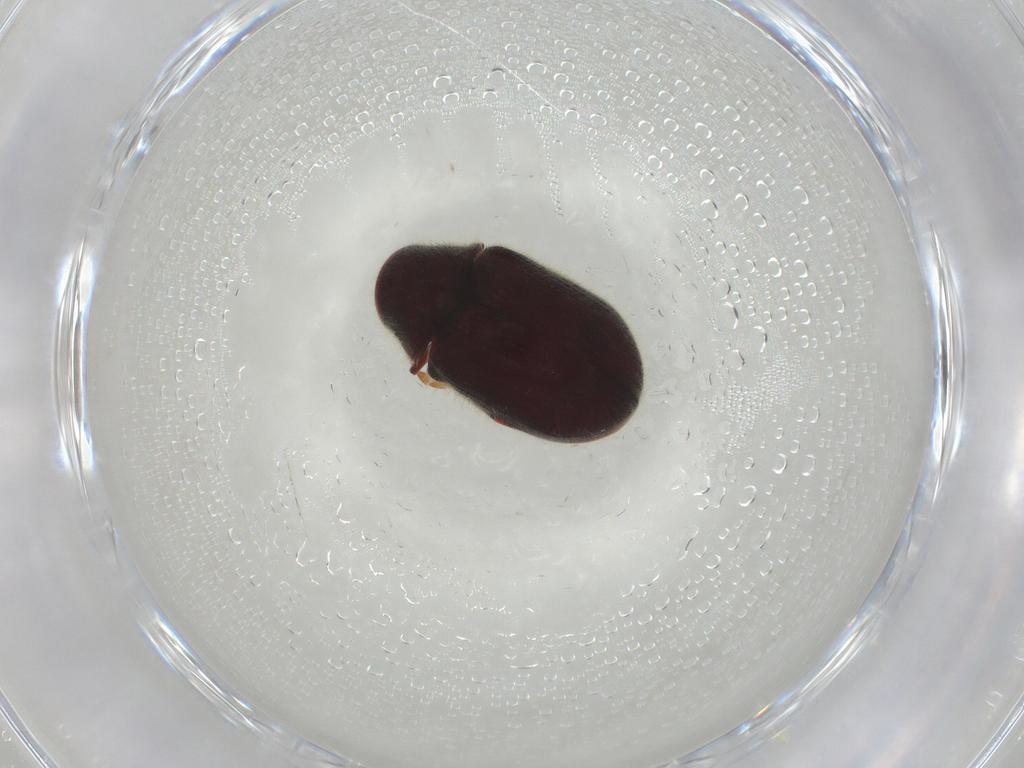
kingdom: Animalia
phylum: Arthropoda
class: Insecta
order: Coleoptera
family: Ptinidae
